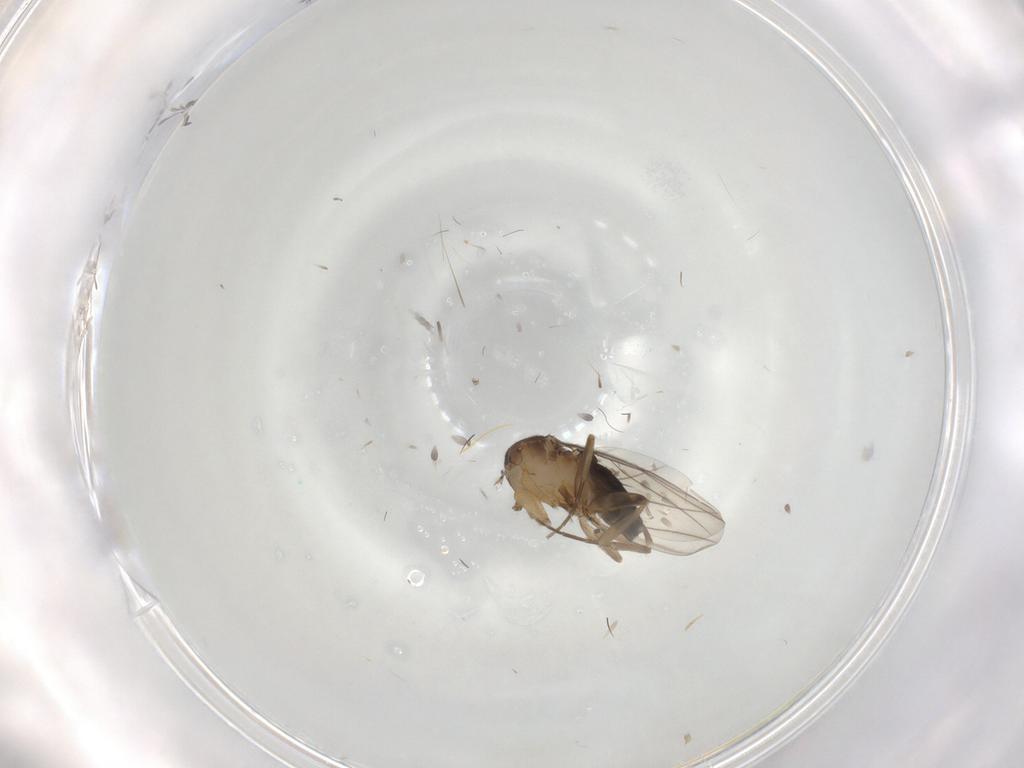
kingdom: Animalia
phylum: Arthropoda
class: Insecta
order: Diptera
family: Phoridae
